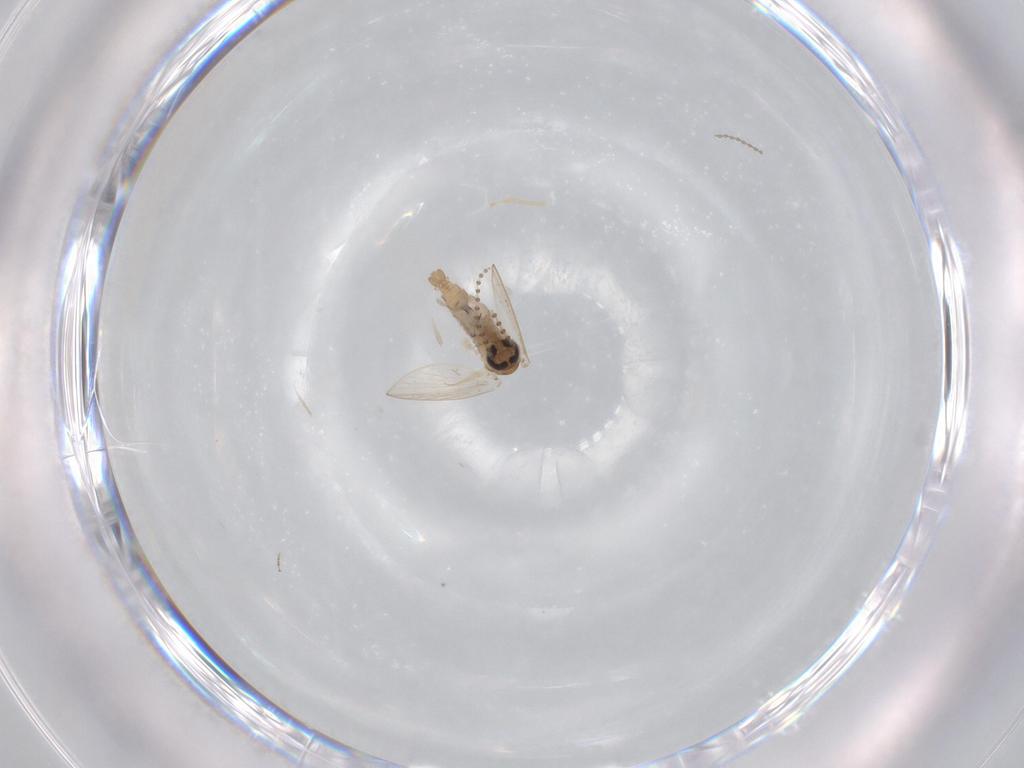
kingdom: Animalia
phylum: Arthropoda
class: Insecta
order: Diptera
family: Psychodidae
